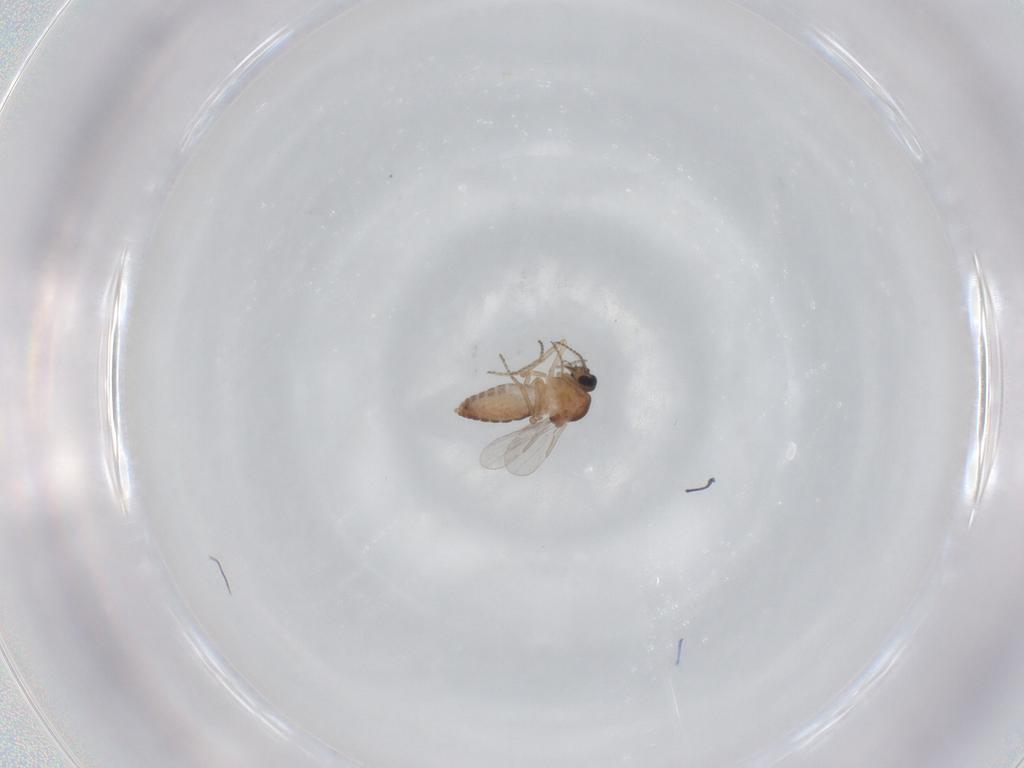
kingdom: Animalia
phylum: Arthropoda
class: Insecta
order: Diptera
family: Ceratopogonidae
